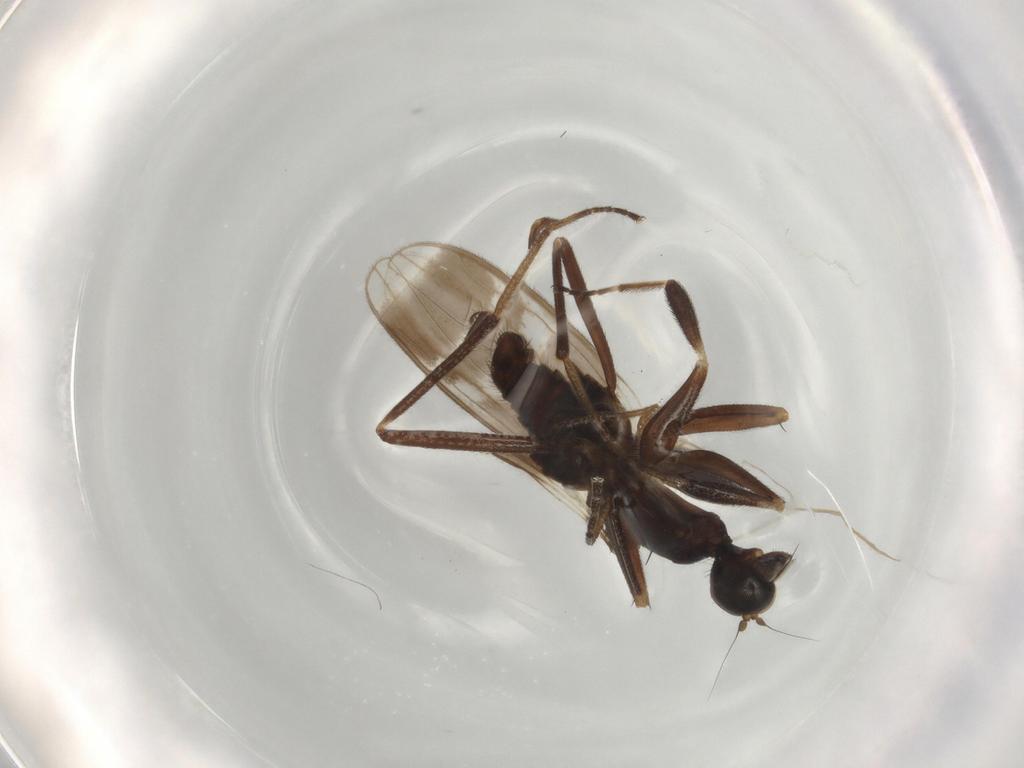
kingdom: Animalia
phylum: Arthropoda
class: Insecta
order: Diptera
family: Hybotidae
